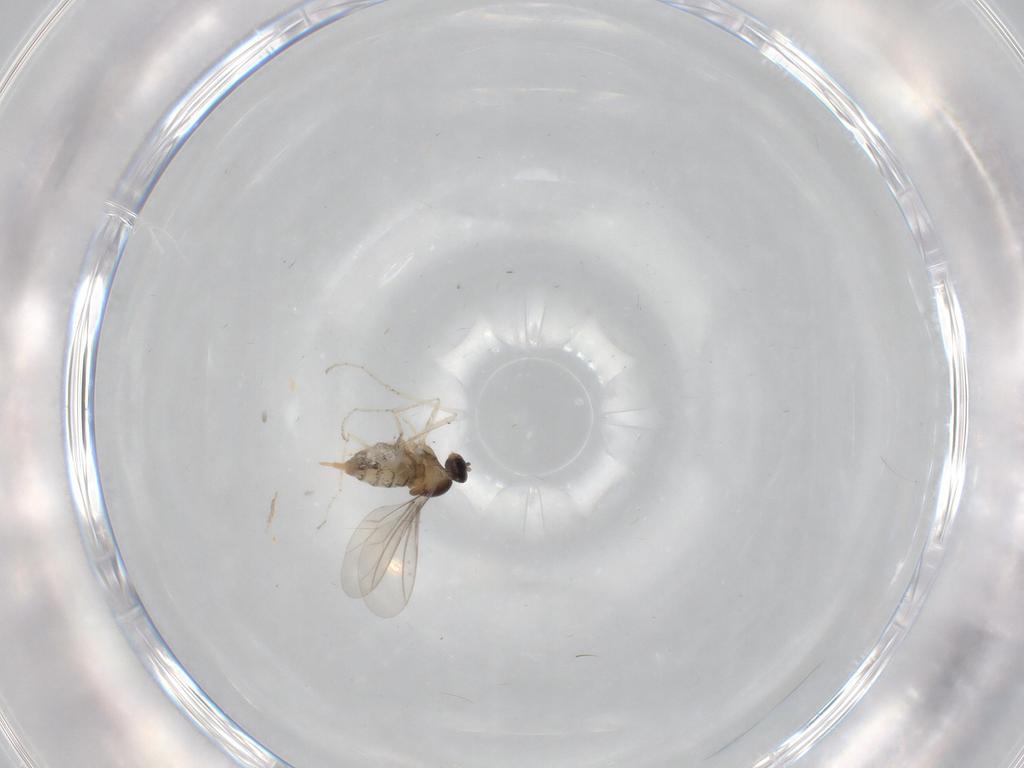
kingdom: Animalia
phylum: Arthropoda
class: Insecta
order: Diptera
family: Cecidomyiidae
